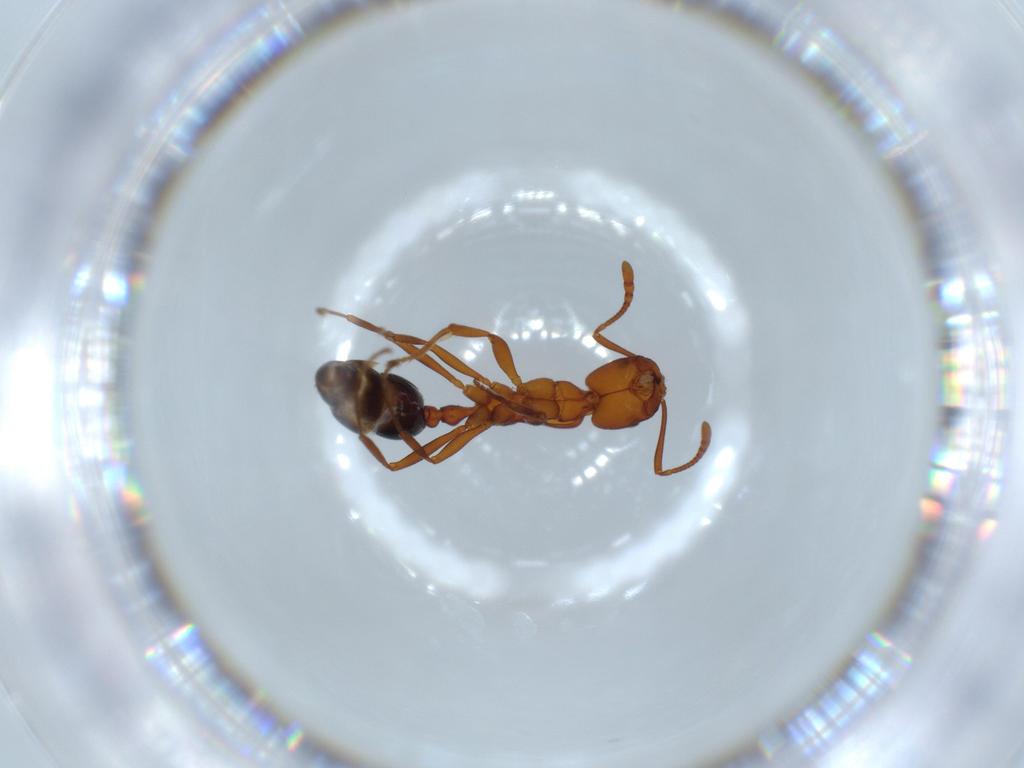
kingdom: Animalia
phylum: Arthropoda
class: Insecta
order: Hymenoptera
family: Formicidae
